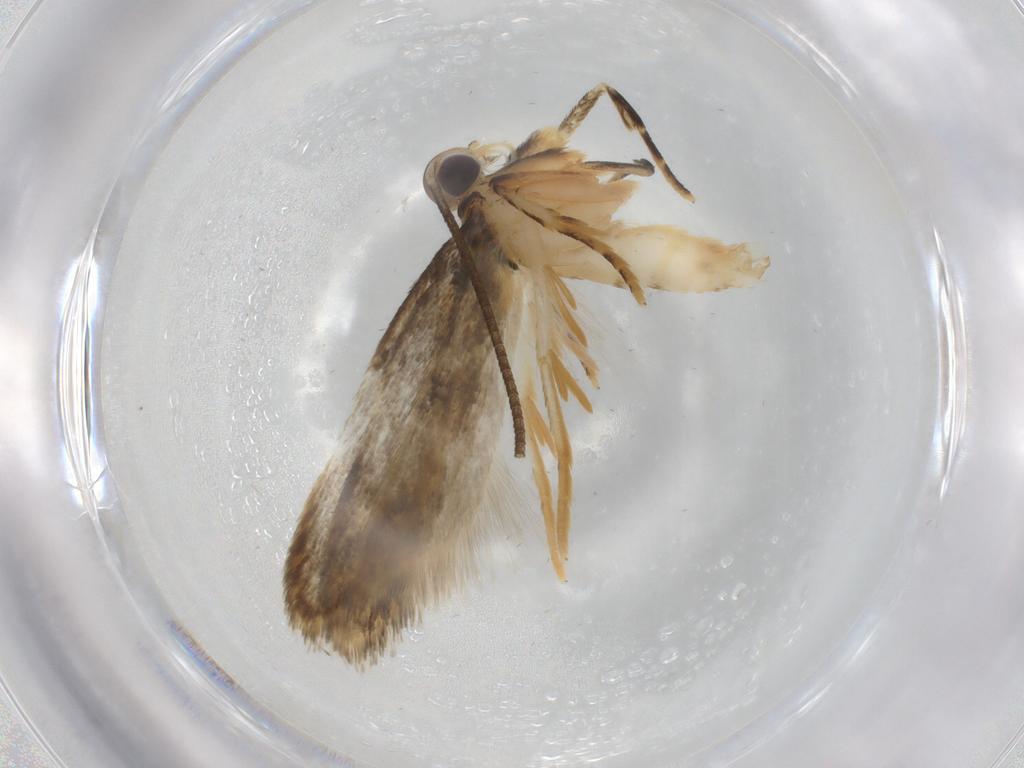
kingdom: Animalia
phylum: Arthropoda
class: Insecta
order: Lepidoptera
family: Autostichidae
